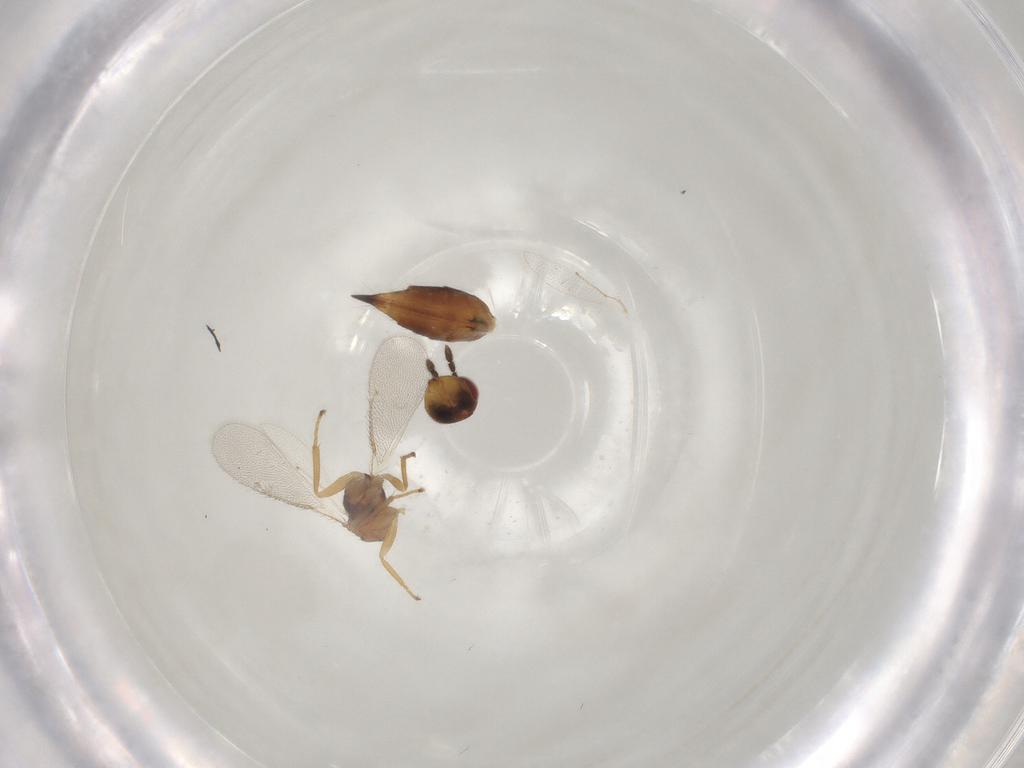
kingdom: Animalia
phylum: Arthropoda
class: Insecta
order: Hymenoptera
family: Eulophidae
